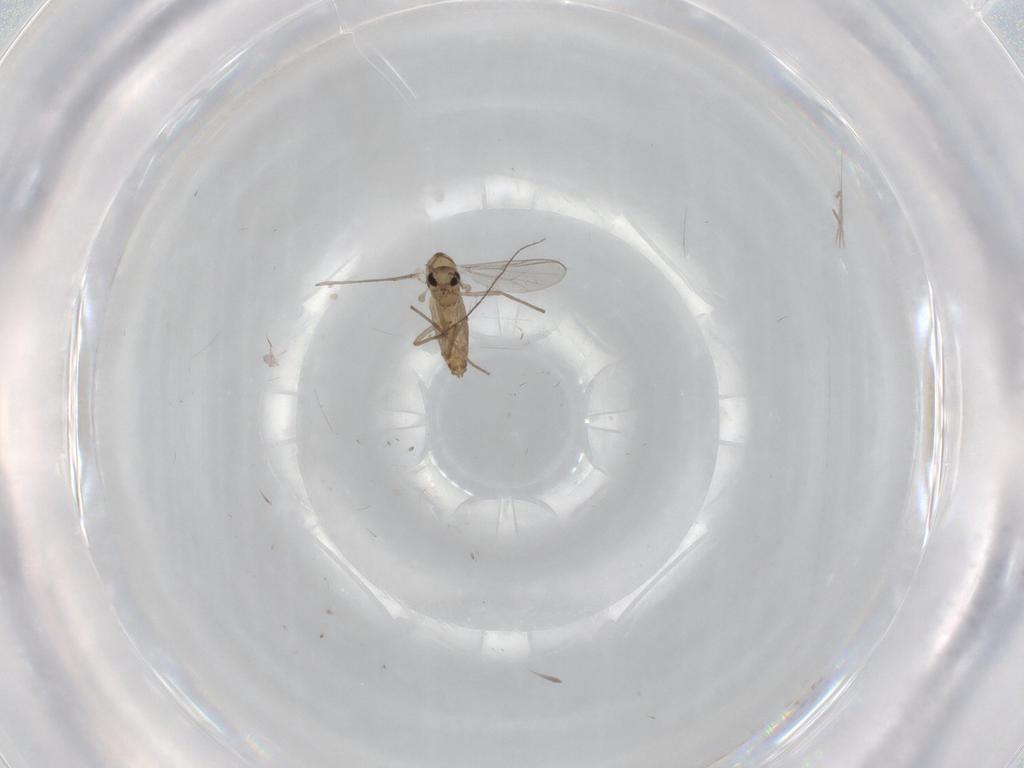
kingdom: Animalia
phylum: Arthropoda
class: Insecta
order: Diptera
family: Chironomidae
